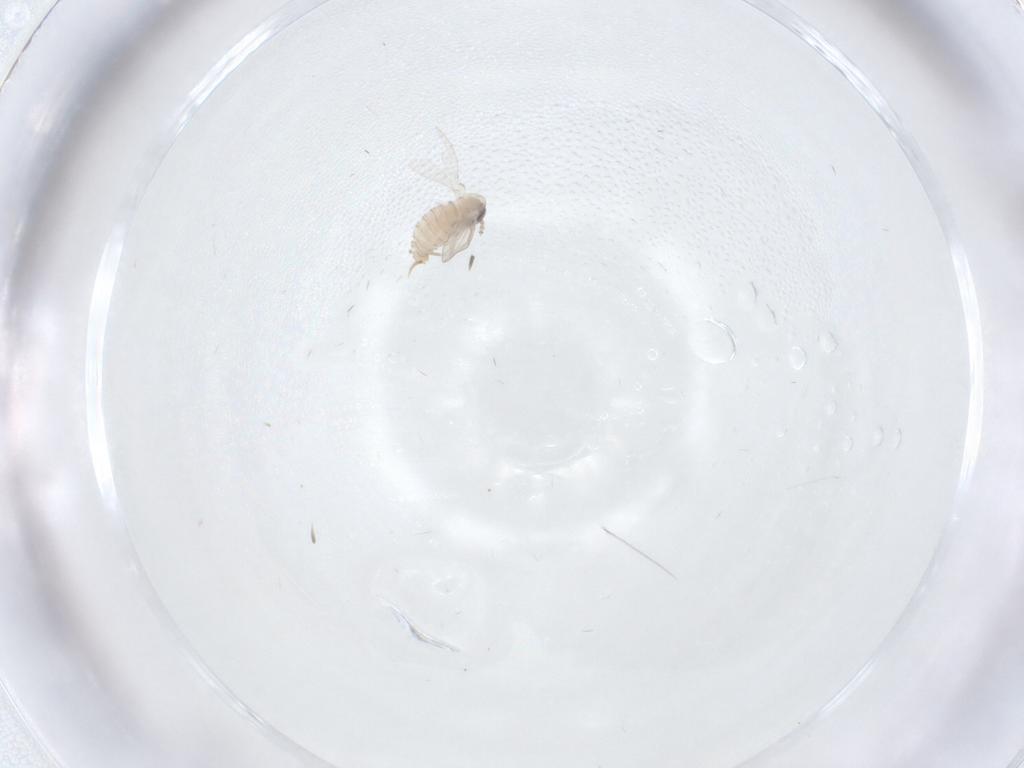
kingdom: Animalia
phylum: Arthropoda
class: Insecta
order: Diptera
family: Psychodidae
